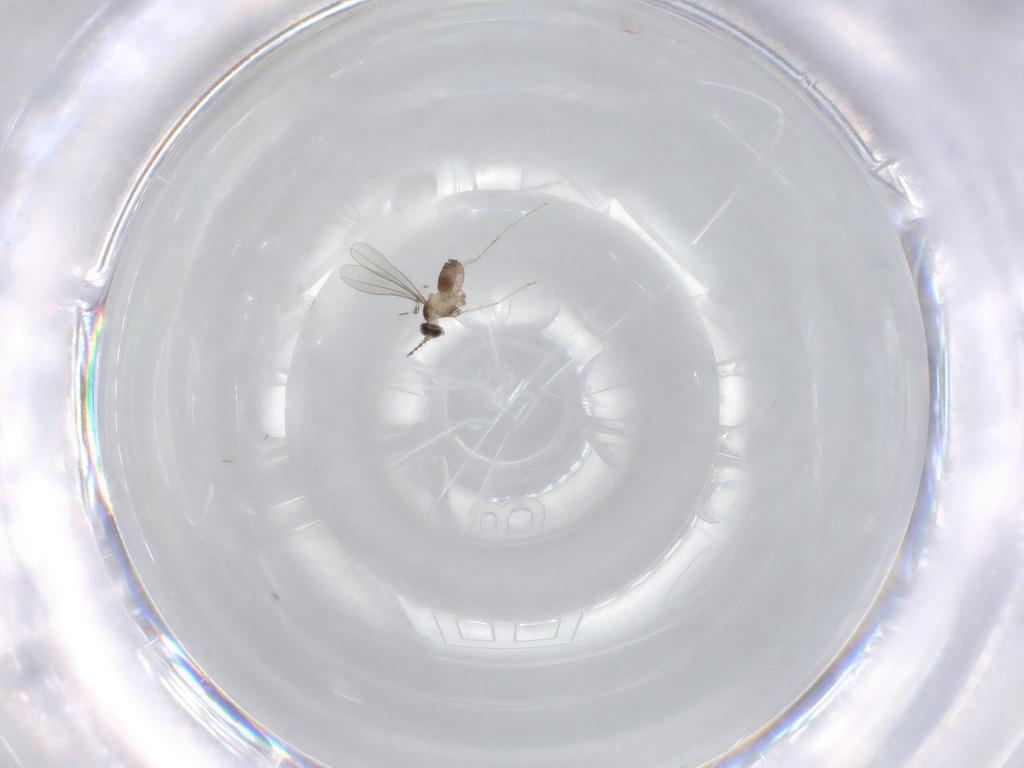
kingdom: Animalia
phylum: Arthropoda
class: Insecta
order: Diptera
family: Cecidomyiidae
